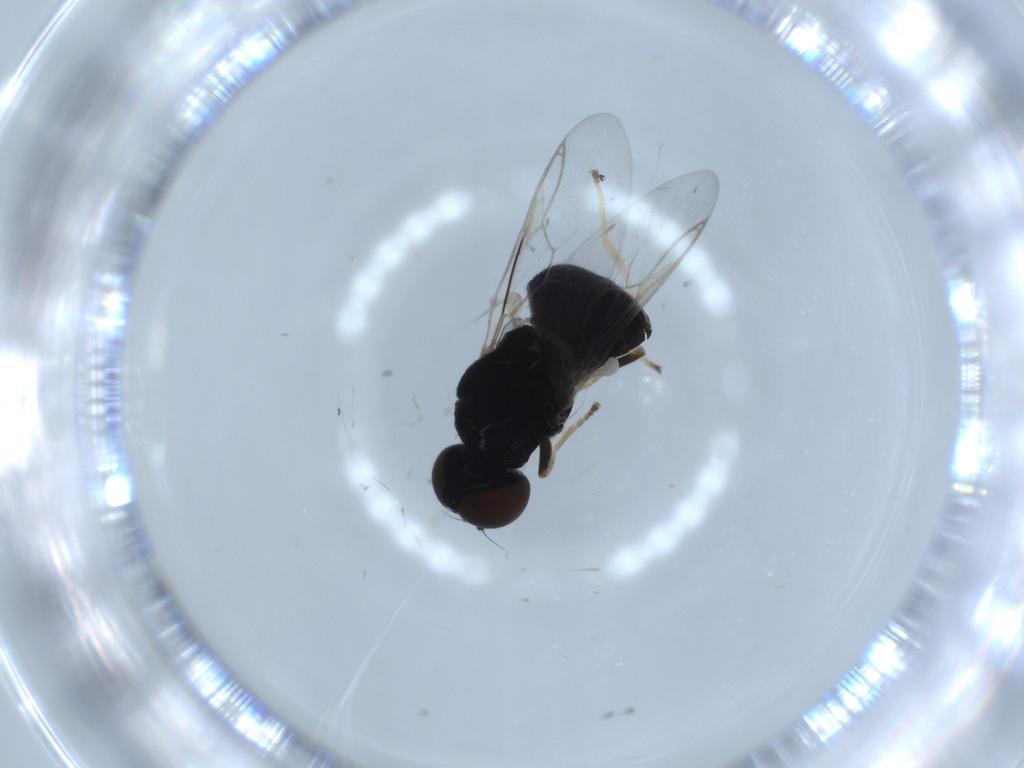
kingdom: Animalia
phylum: Arthropoda
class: Insecta
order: Diptera
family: Stratiomyidae
